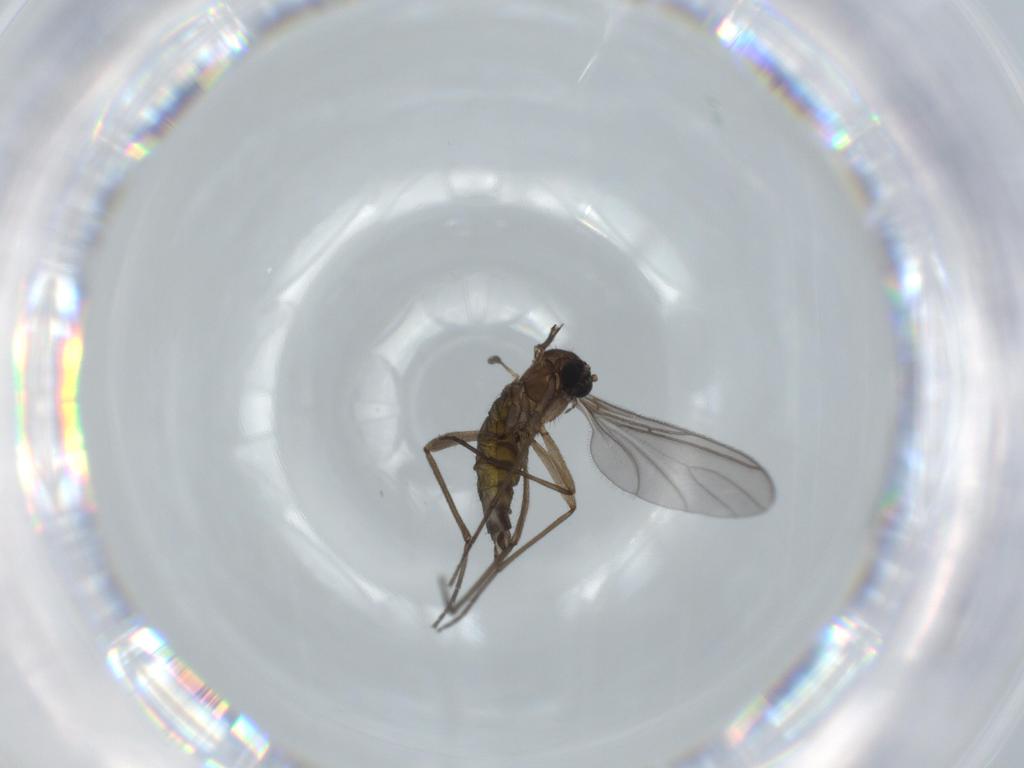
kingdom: Animalia
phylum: Arthropoda
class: Insecta
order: Diptera
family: Sciaridae
